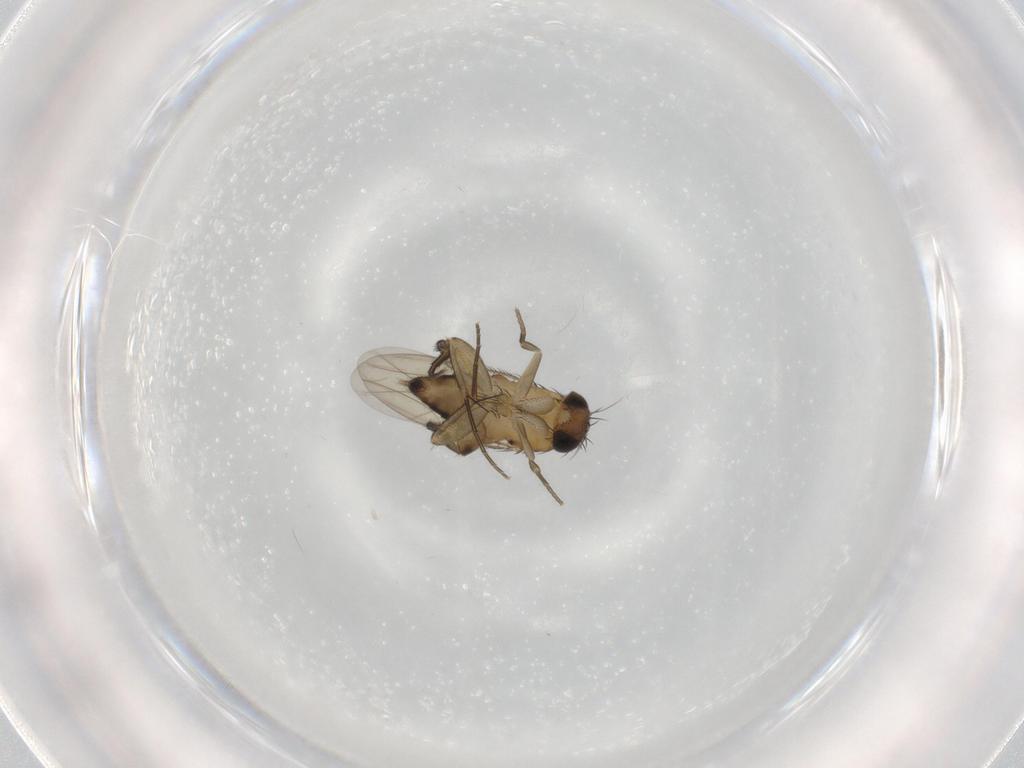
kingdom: Animalia
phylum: Arthropoda
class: Insecta
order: Diptera
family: Phoridae
